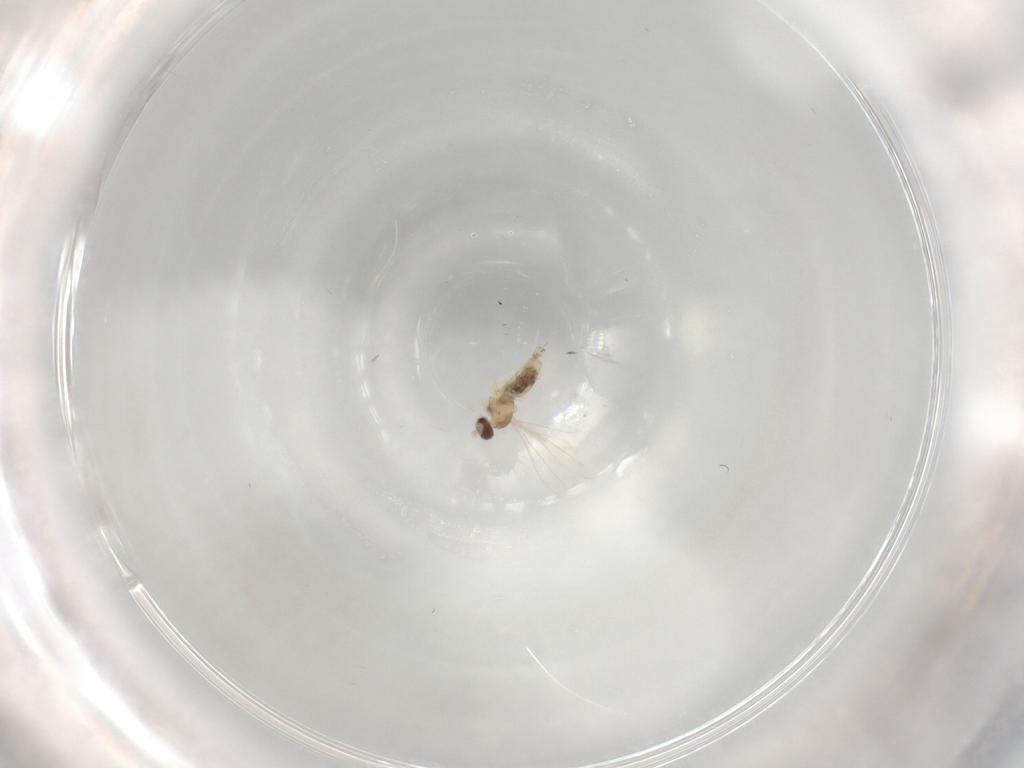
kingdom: Animalia
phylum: Arthropoda
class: Insecta
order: Diptera
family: Cecidomyiidae
